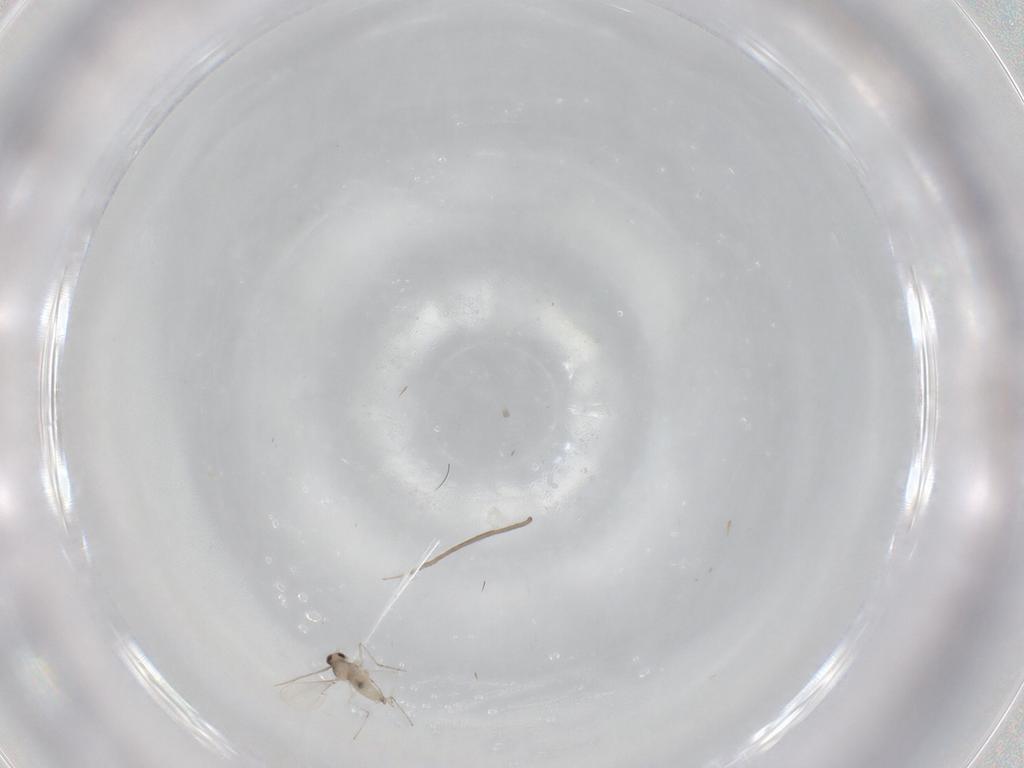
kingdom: Animalia
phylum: Arthropoda
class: Insecta
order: Diptera
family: Cecidomyiidae
